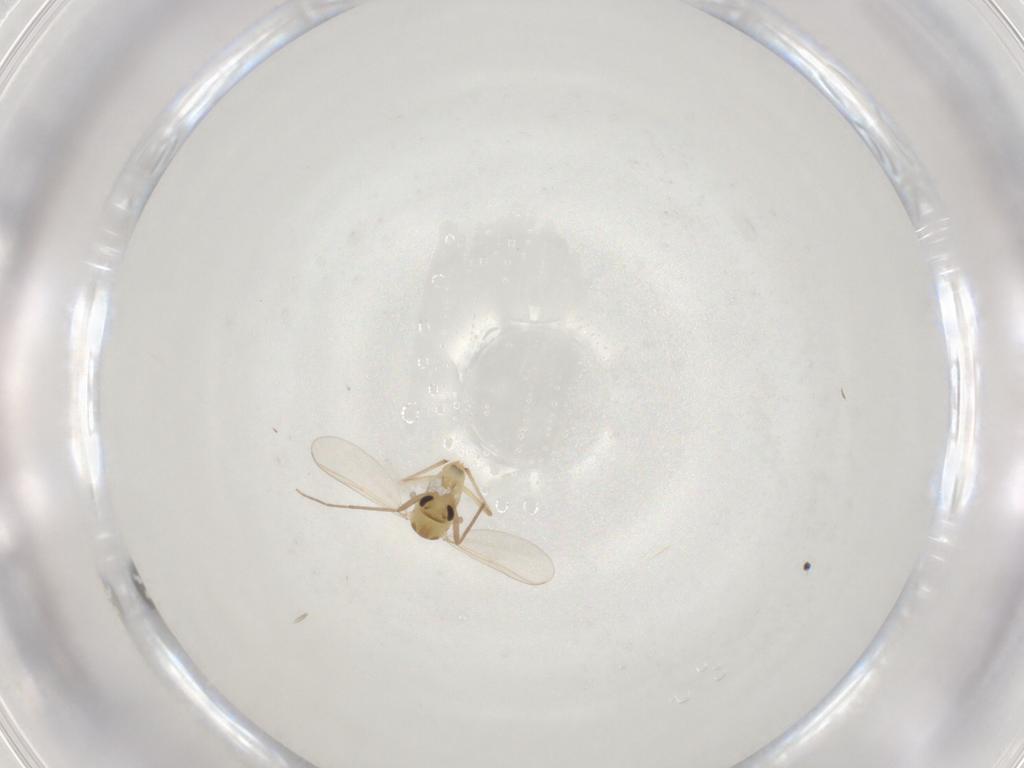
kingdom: Animalia
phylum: Arthropoda
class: Insecta
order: Diptera
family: Chironomidae
